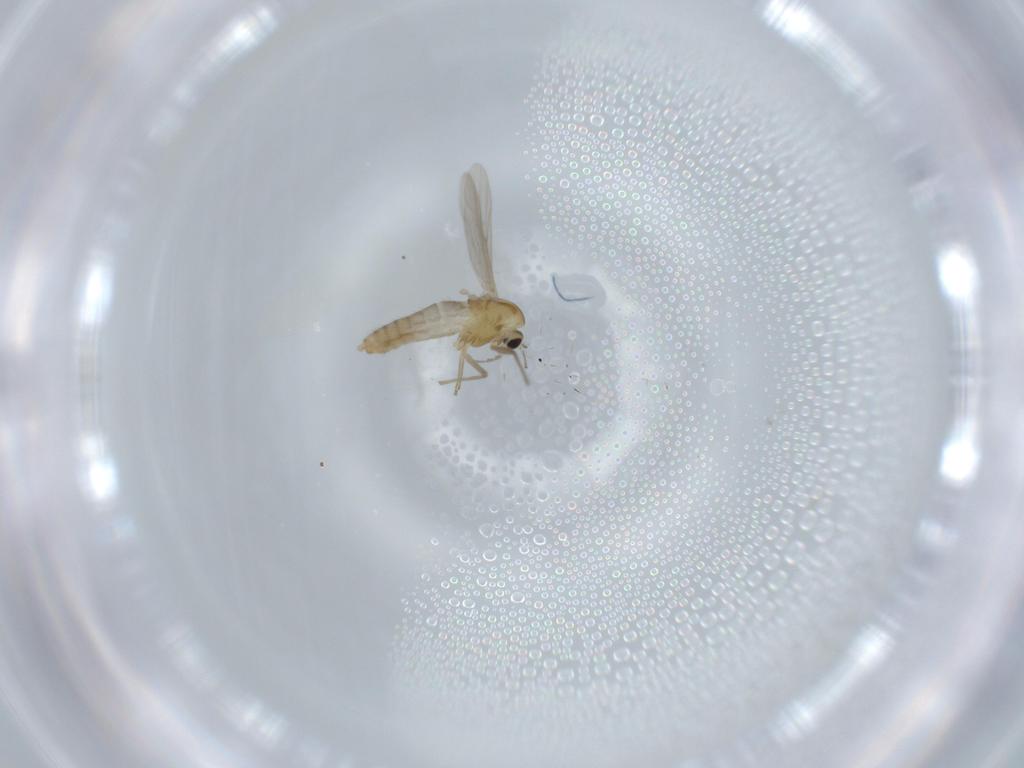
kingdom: Animalia
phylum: Arthropoda
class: Insecta
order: Diptera
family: Chironomidae
